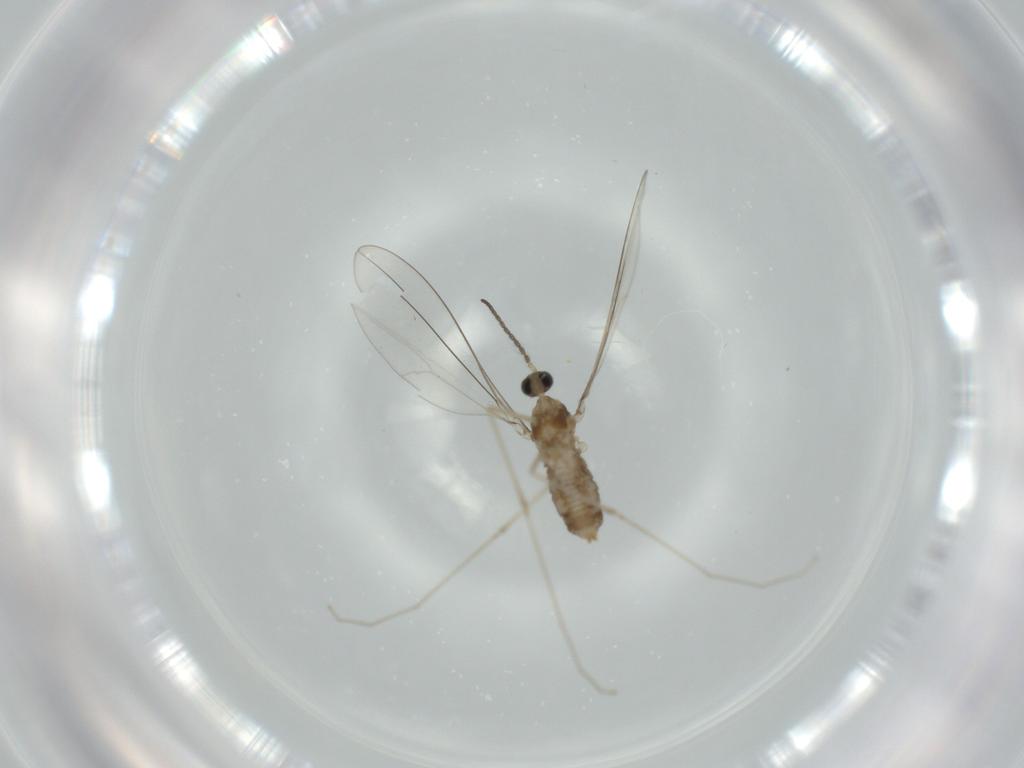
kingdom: Animalia
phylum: Arthropoda
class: Insecta
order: Diptera
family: Cecidomyiidae
